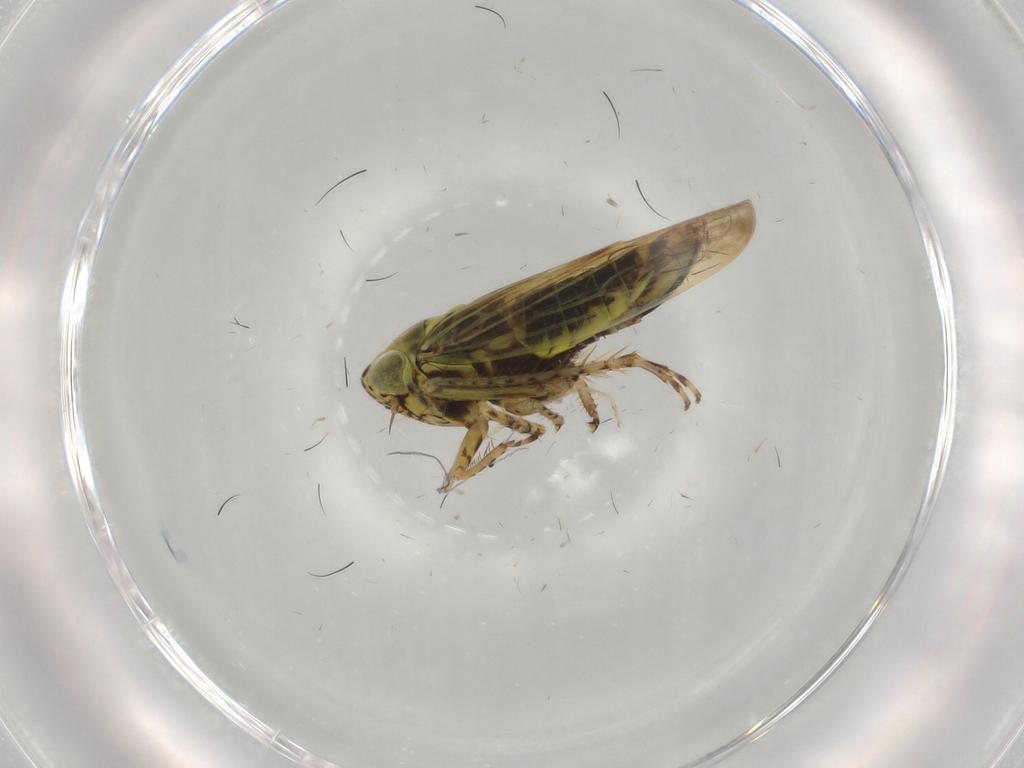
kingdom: Animalia
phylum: Arthropoda
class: Insecta
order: Hemiptera
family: Cicadellidae
